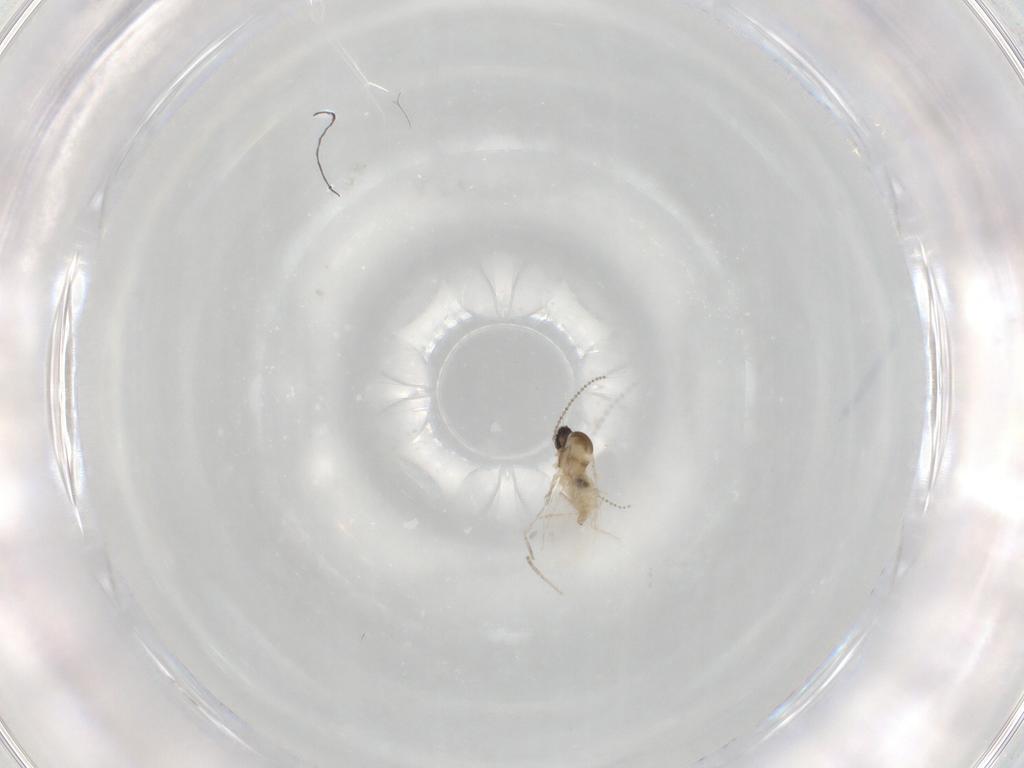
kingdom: Animalia
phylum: Arthropoda
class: Insecta
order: Diptera
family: Cecidomyiidae
